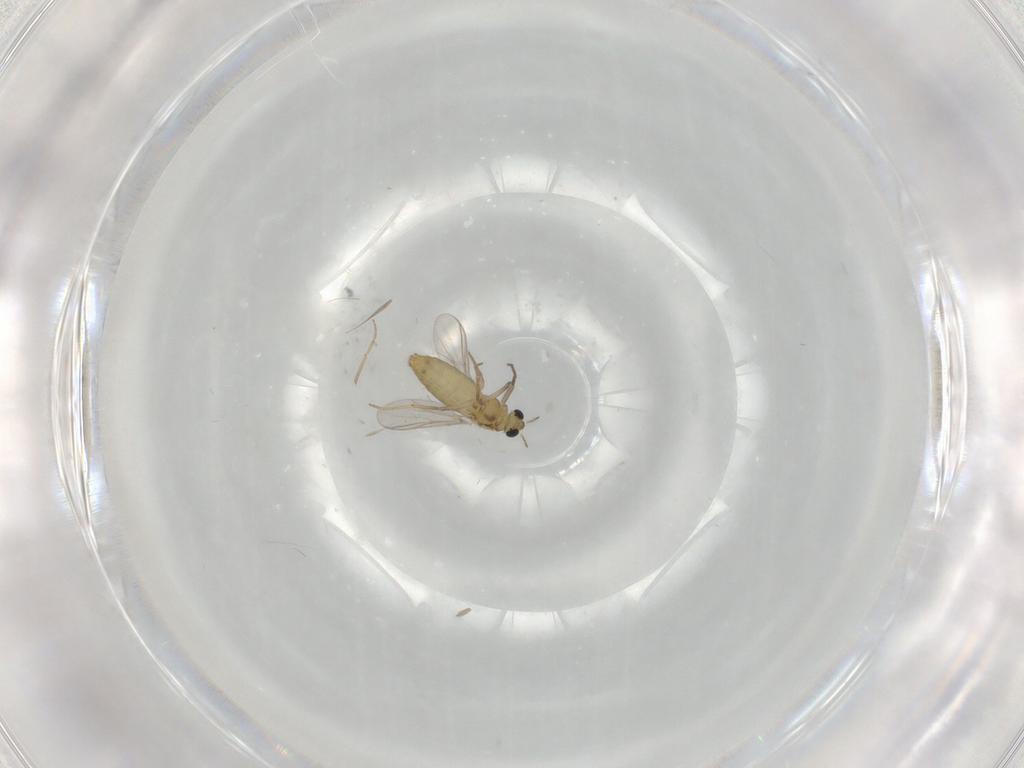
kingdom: Animalia
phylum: Arthropoda
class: Insecta
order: Diptera
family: Chironomidae
